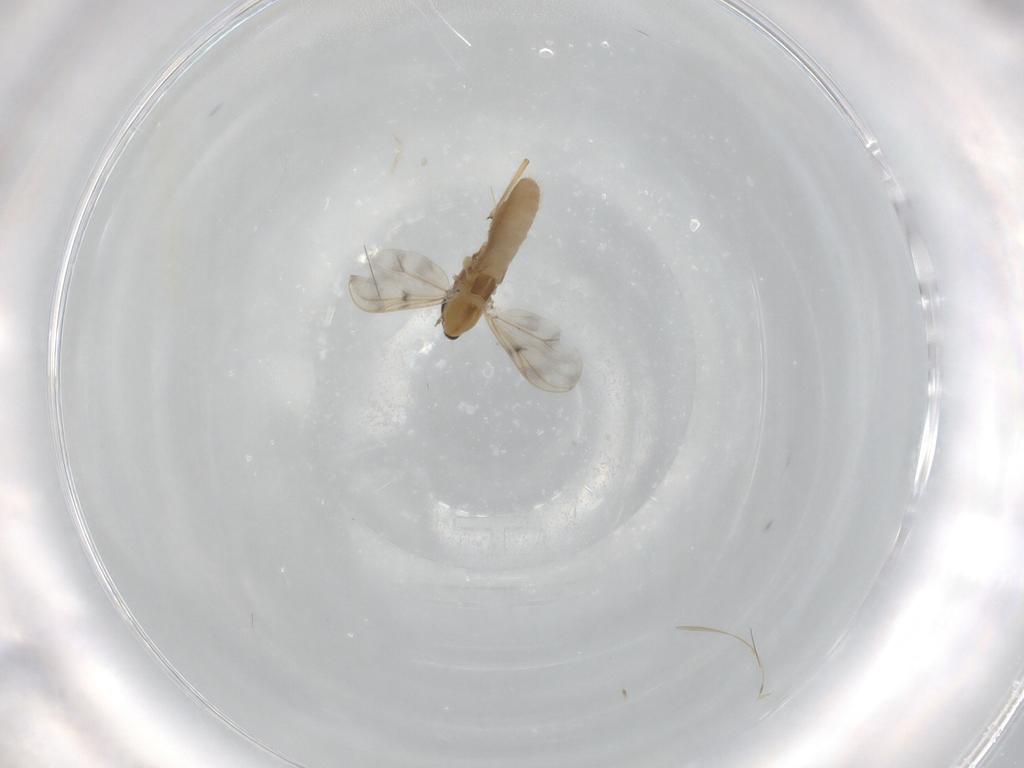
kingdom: Animalia
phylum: Arthropoda
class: Insecta
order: Diptera
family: Chironomidae
